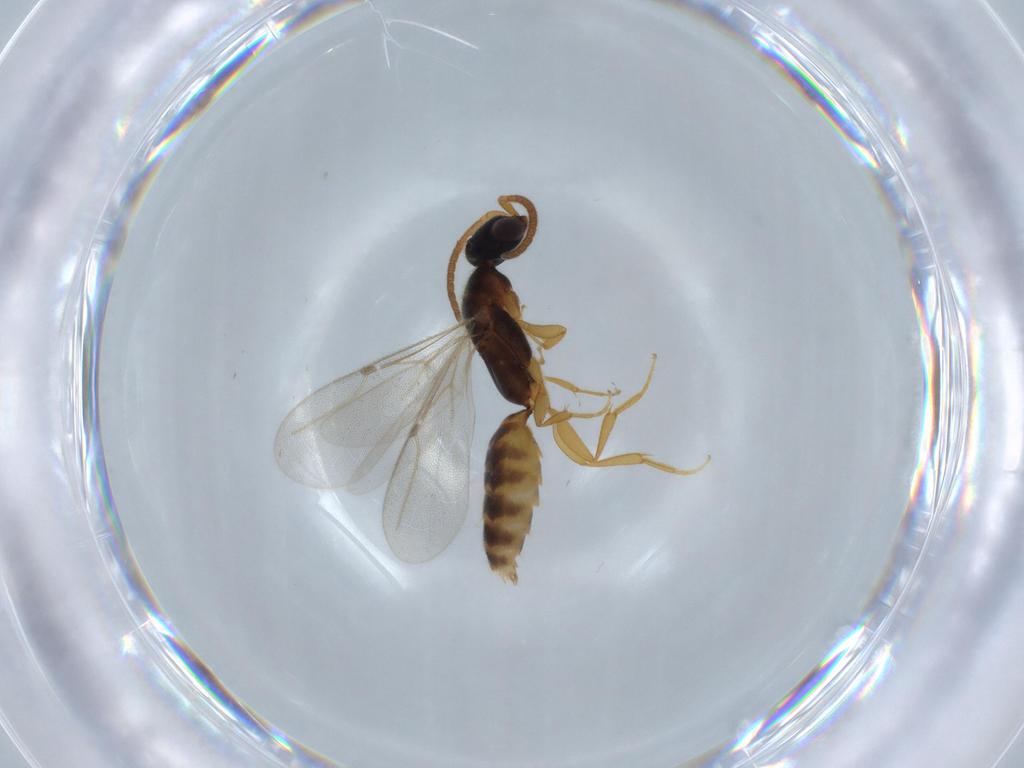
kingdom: Animalia
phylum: Arthropoda
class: Insecta
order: Hymenoptera
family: Bethylidae
